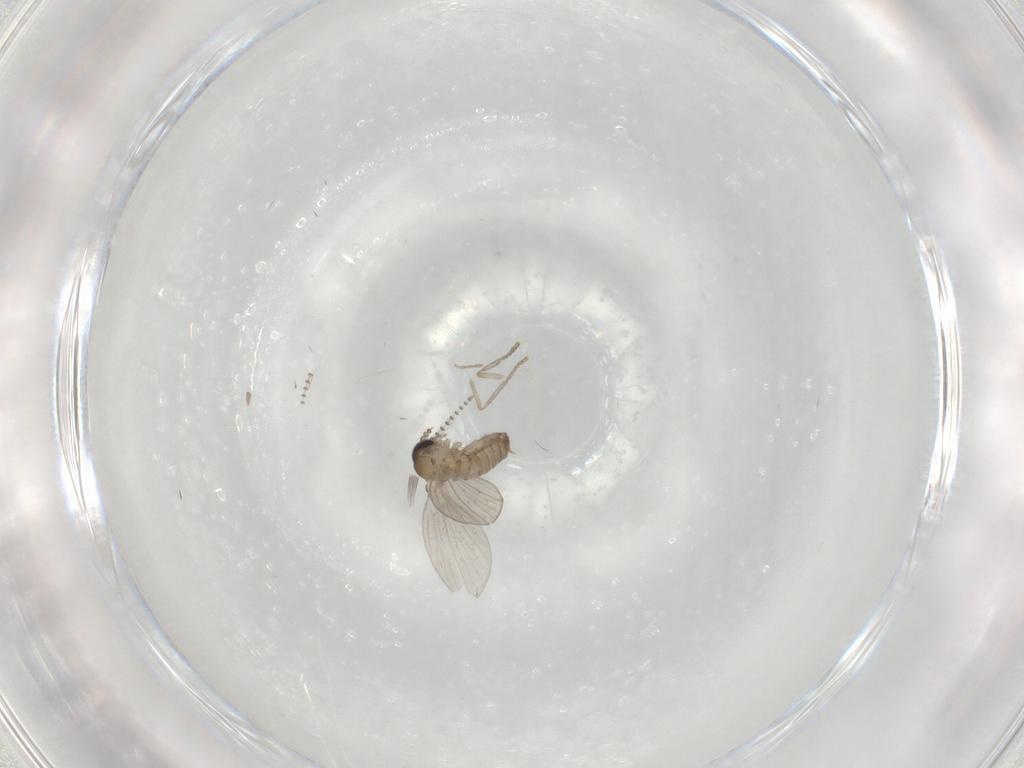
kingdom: Animalia
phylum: Arthropoda
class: Insecta
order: Diptera
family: Psychodidae
